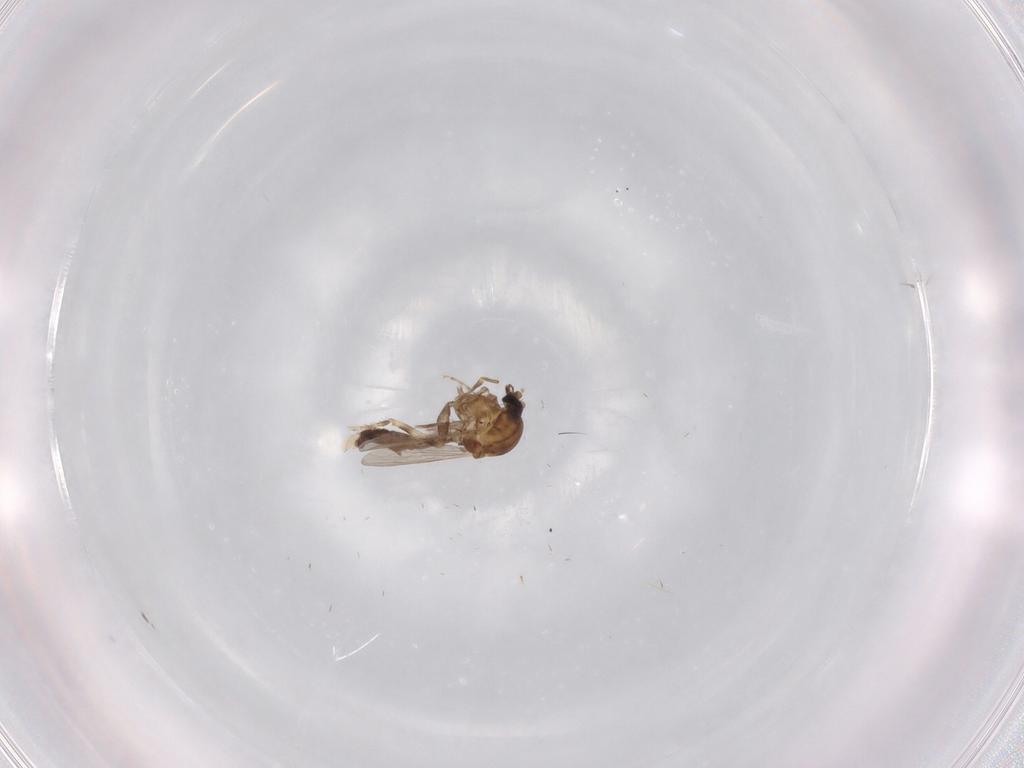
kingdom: Animalia
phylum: Arthropoda
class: Insecta
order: Diptera
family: Ceratopogonidae
